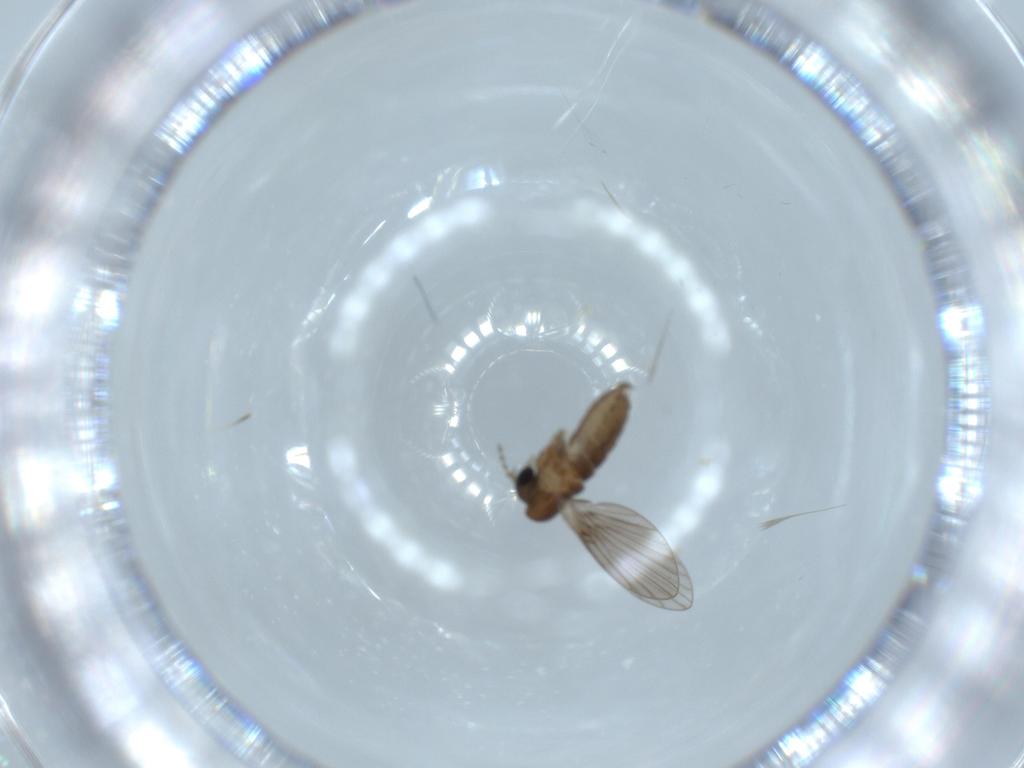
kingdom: Animalia
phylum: Arthropoda
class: Insecta
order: Diptera
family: Psychodidae
